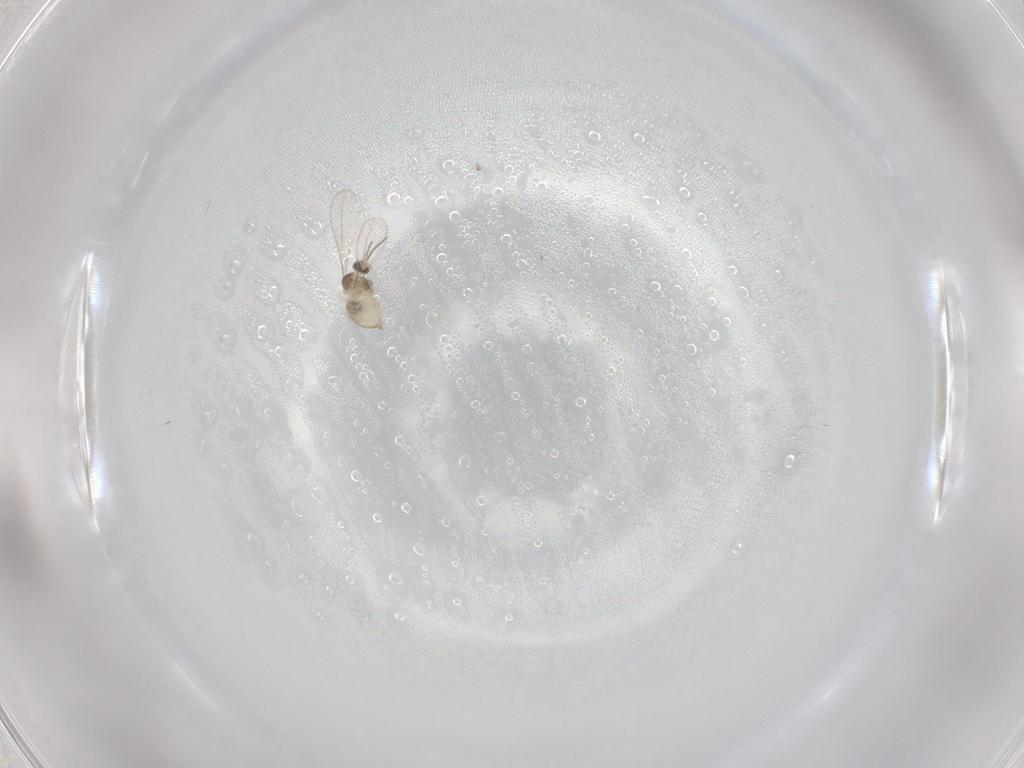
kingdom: Animalia
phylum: Arthropoda
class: Insecta
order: Diptera
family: Cecidomyiidae
